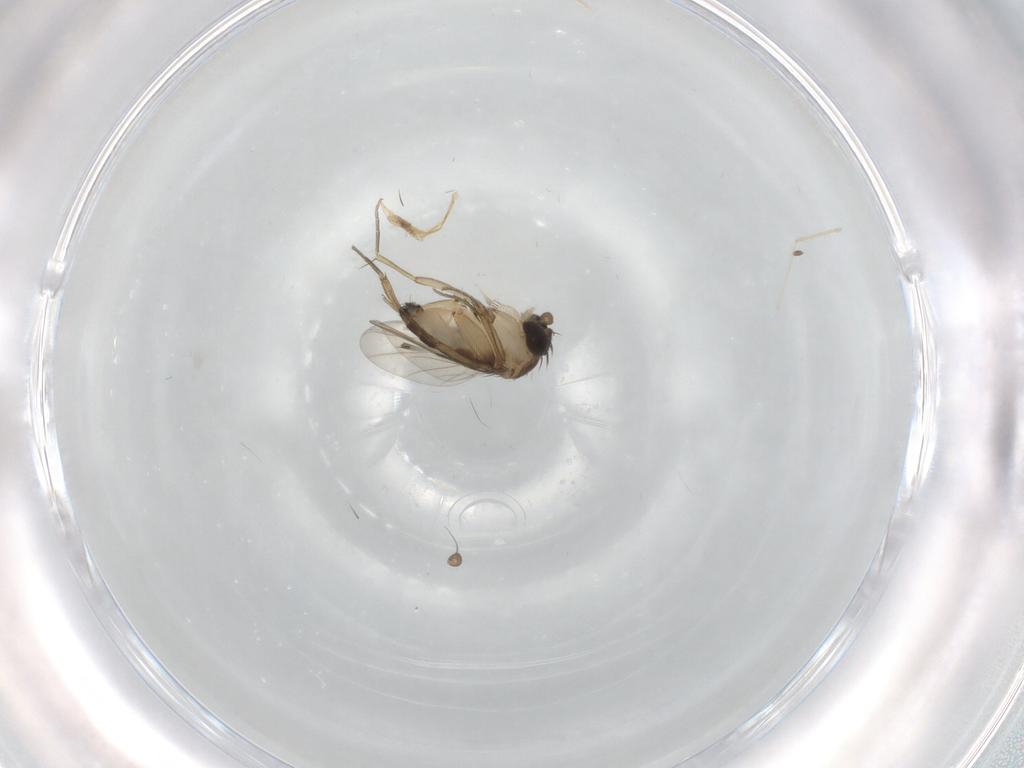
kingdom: Animalia
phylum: Arthropoda
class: Insecta
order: Diptera
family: Phoridae
